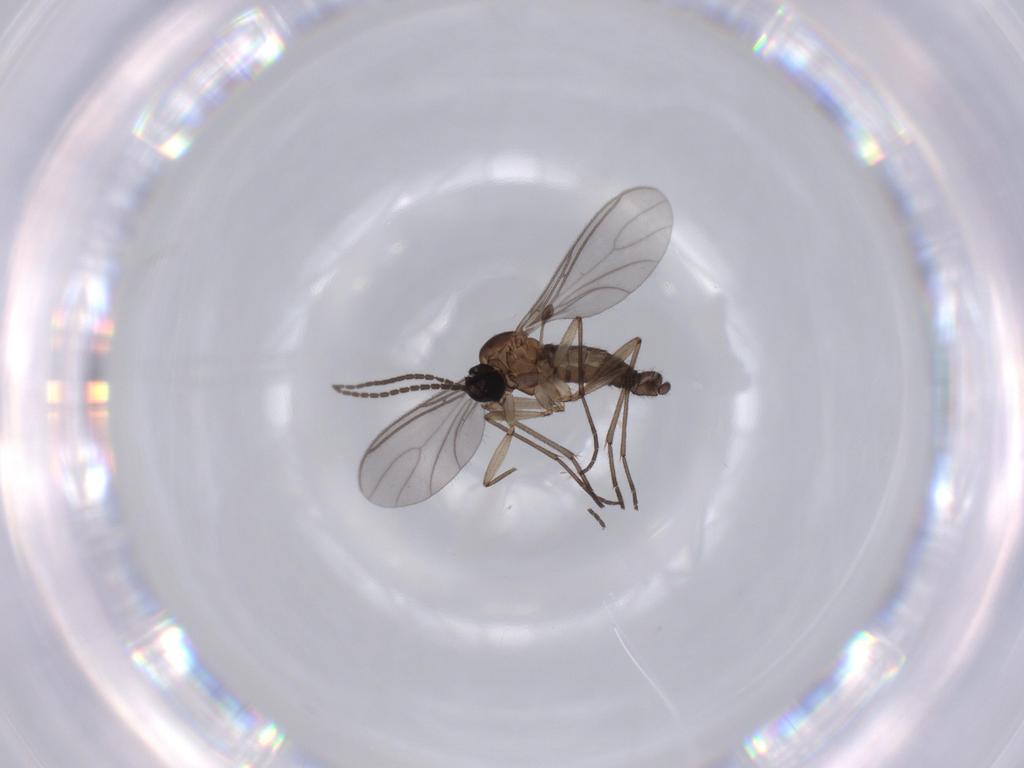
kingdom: Animalia
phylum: Arthropoda
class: Insecta
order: Diptera
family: Sciaridae
